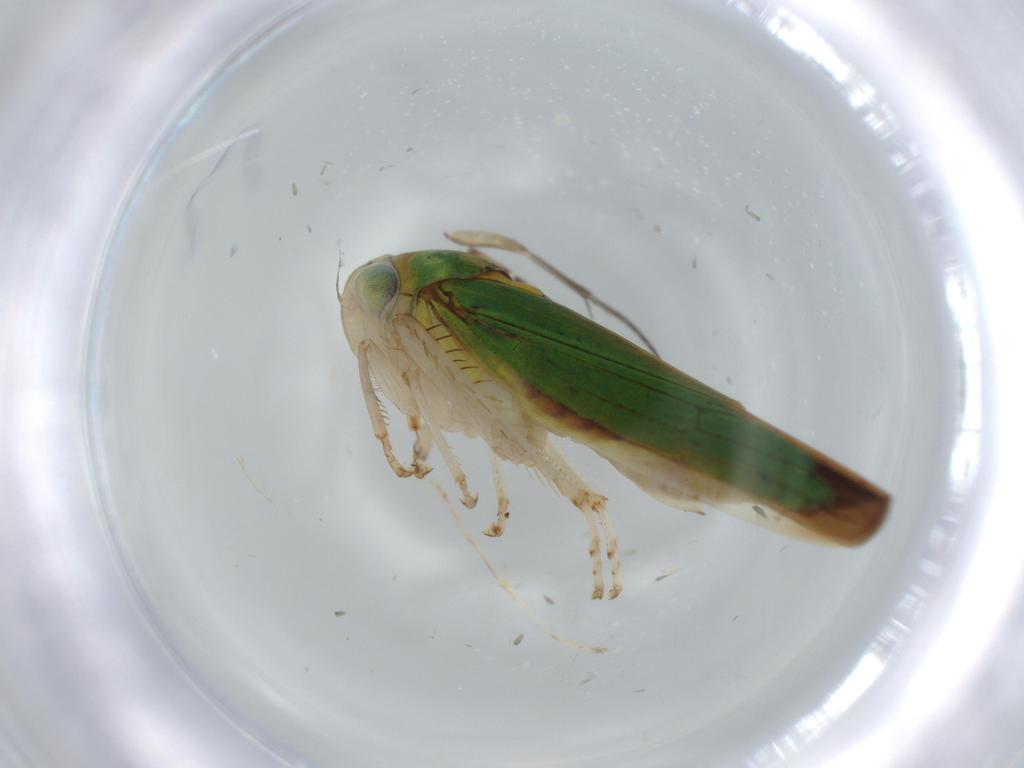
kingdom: Animalia
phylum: Arthropoda
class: Insecta
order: Hemiptera
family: Cicadellidae
